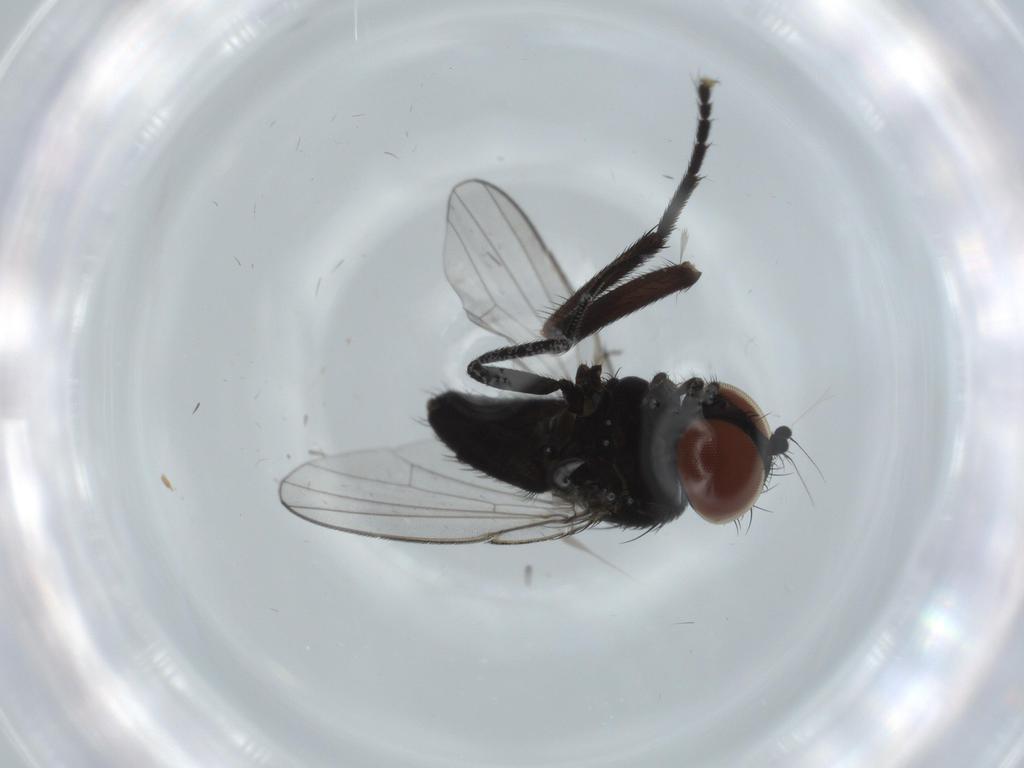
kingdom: Animalia
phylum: Arthropoda
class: Insecta
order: Diptera
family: Milichiidae
